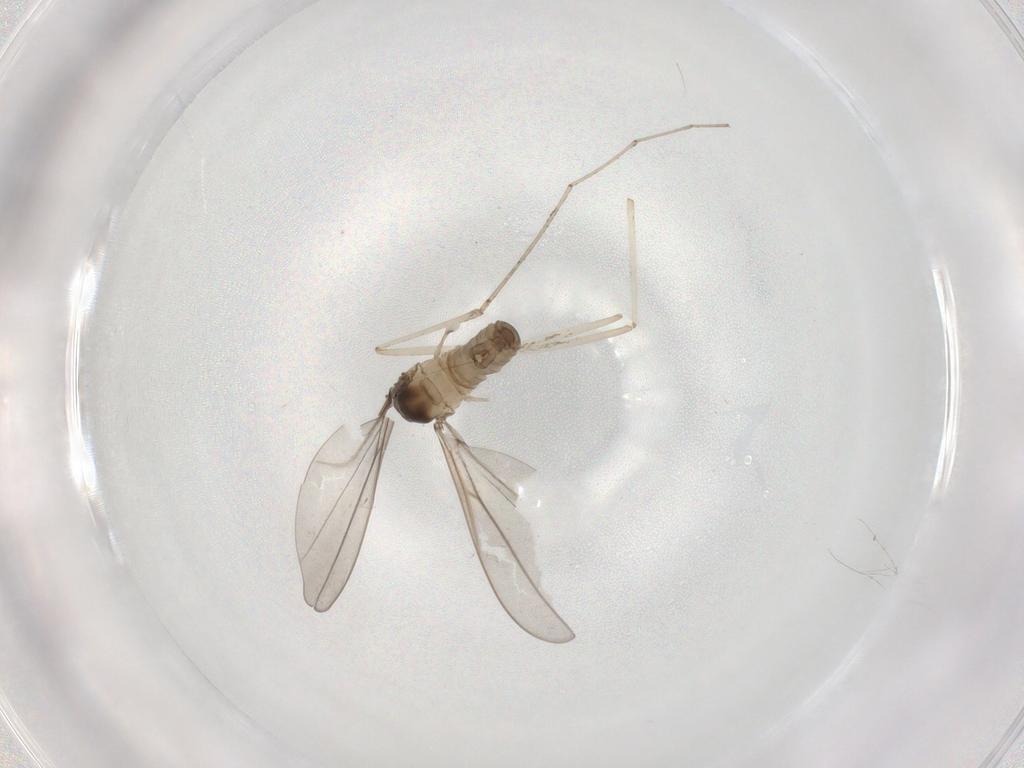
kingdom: Animalia
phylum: Arthropoda
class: Insecta
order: Diptera
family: Cecidomyiidae
